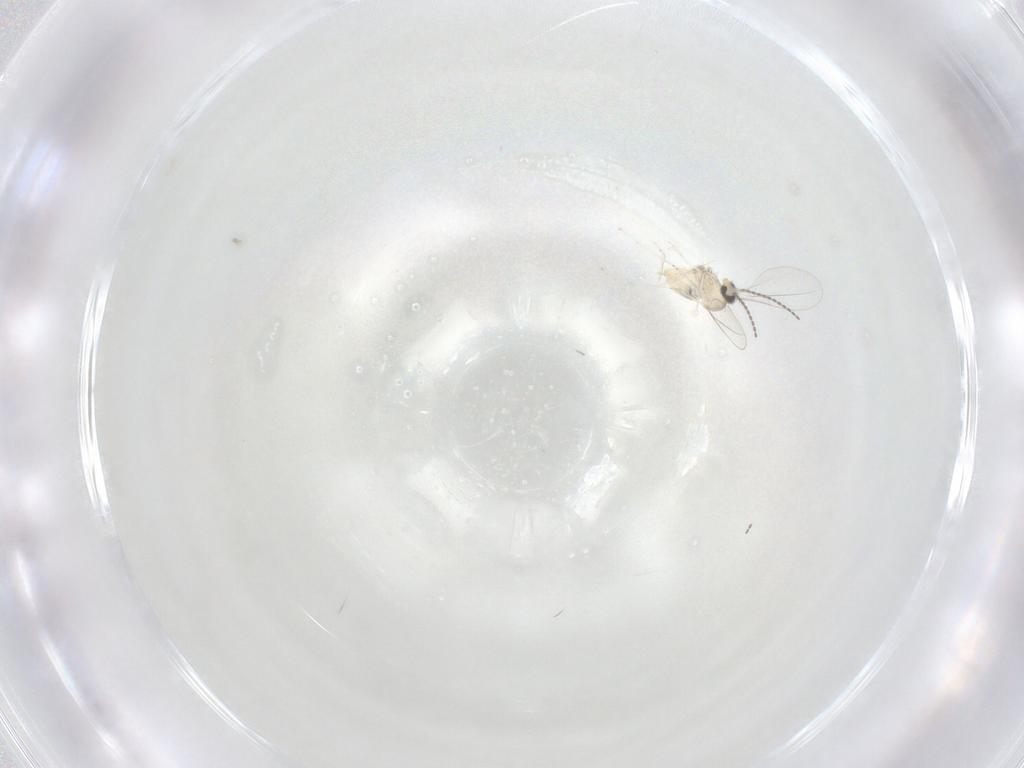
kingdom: Animalia
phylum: Arthropoda
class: Insecta
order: Diptera
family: Cecidomyiidae
